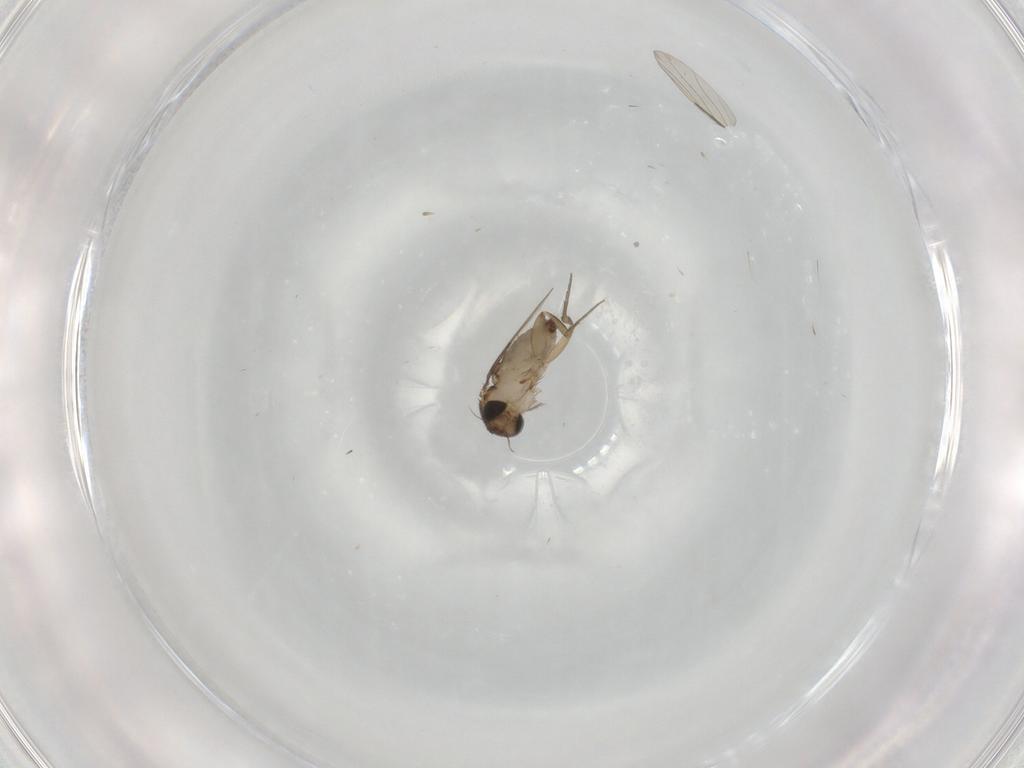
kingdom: Animalia
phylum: Arthropoda
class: Insecta
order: Diptera
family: Phoridae
